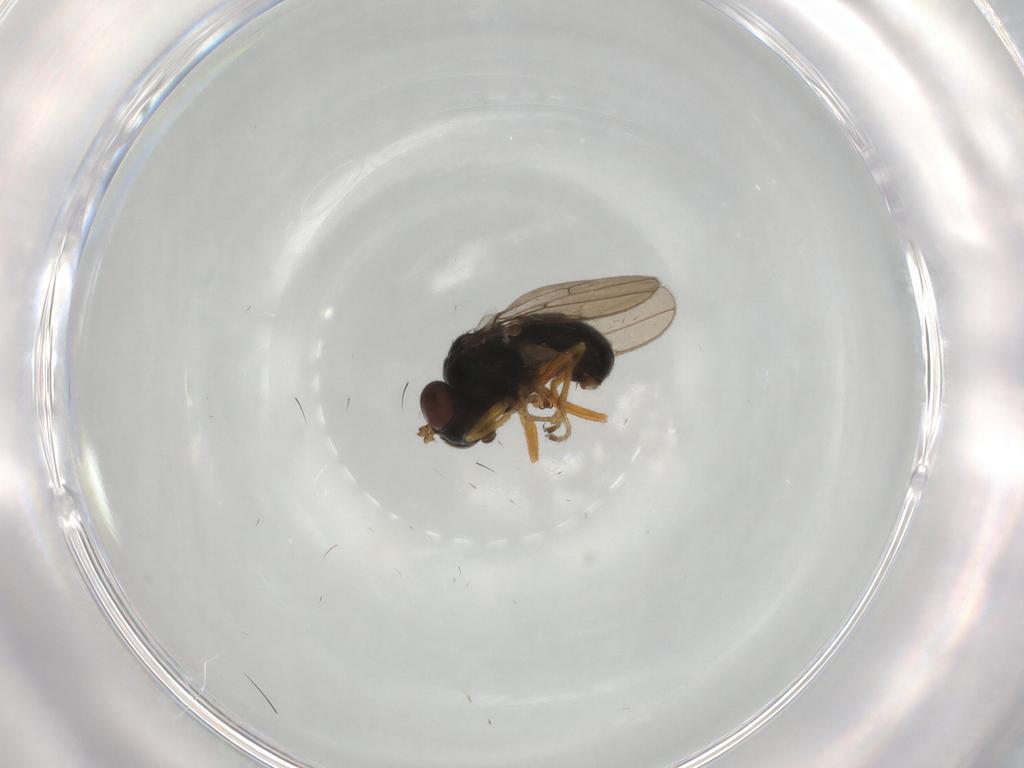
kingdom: Animalia
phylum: Arthropoda
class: Insecta
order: Diptera
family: Ephydridae
